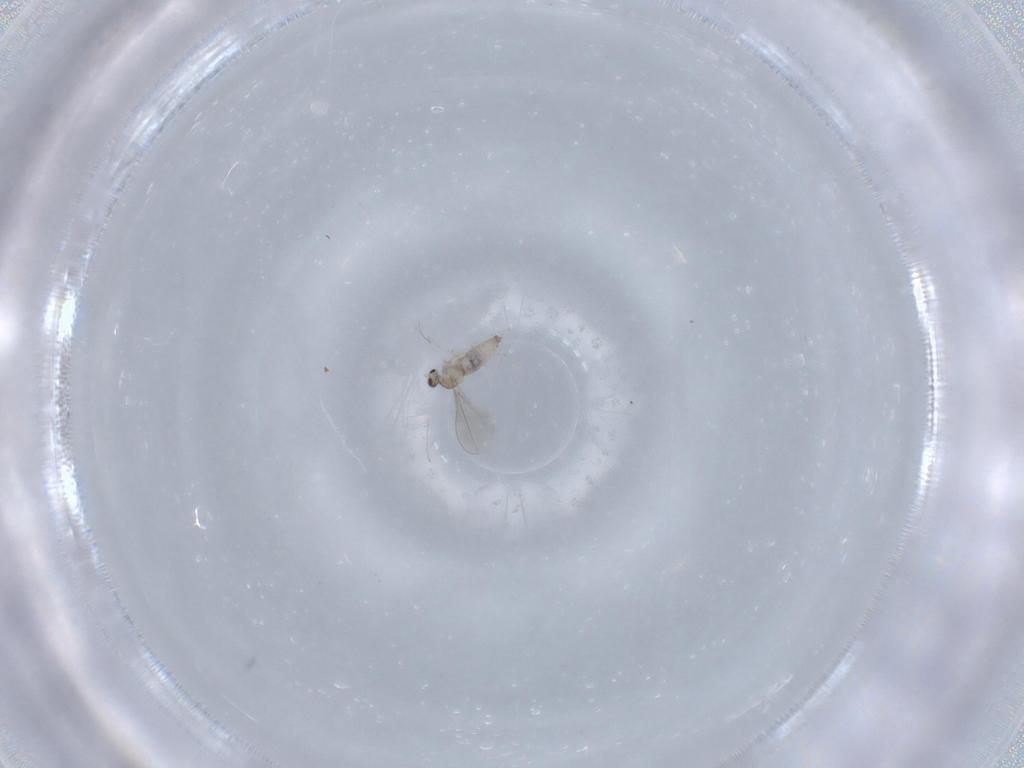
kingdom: Animalia
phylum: Arthropoda
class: Insecta
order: Diptera
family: Cecidomyiidae
